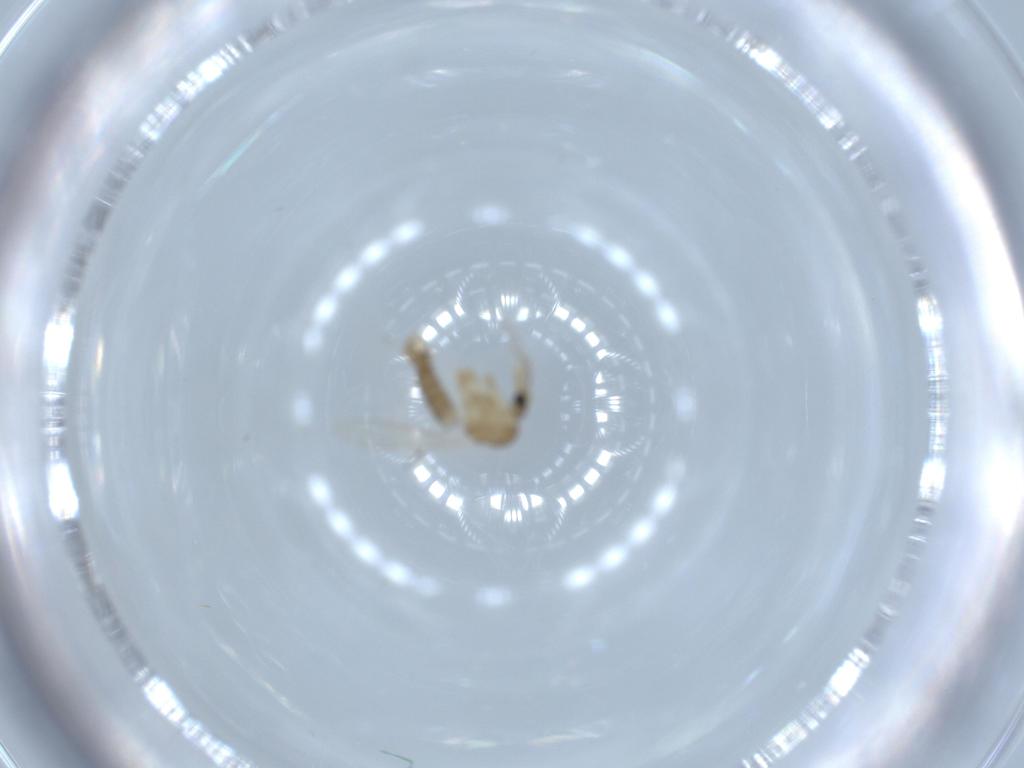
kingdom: Animalia
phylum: Arthropoda
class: Insecta
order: Diptera
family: Psychodidae
